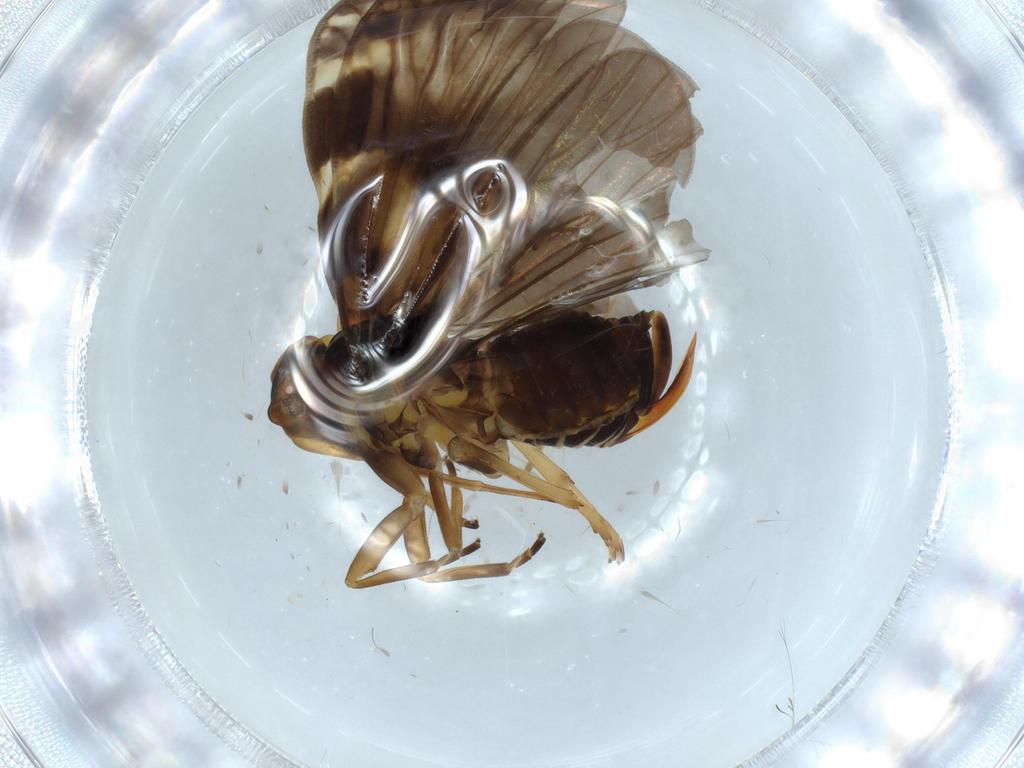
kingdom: Animalia
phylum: Arthropoda
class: Insecta
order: Hemiptera
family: Cixiidae
